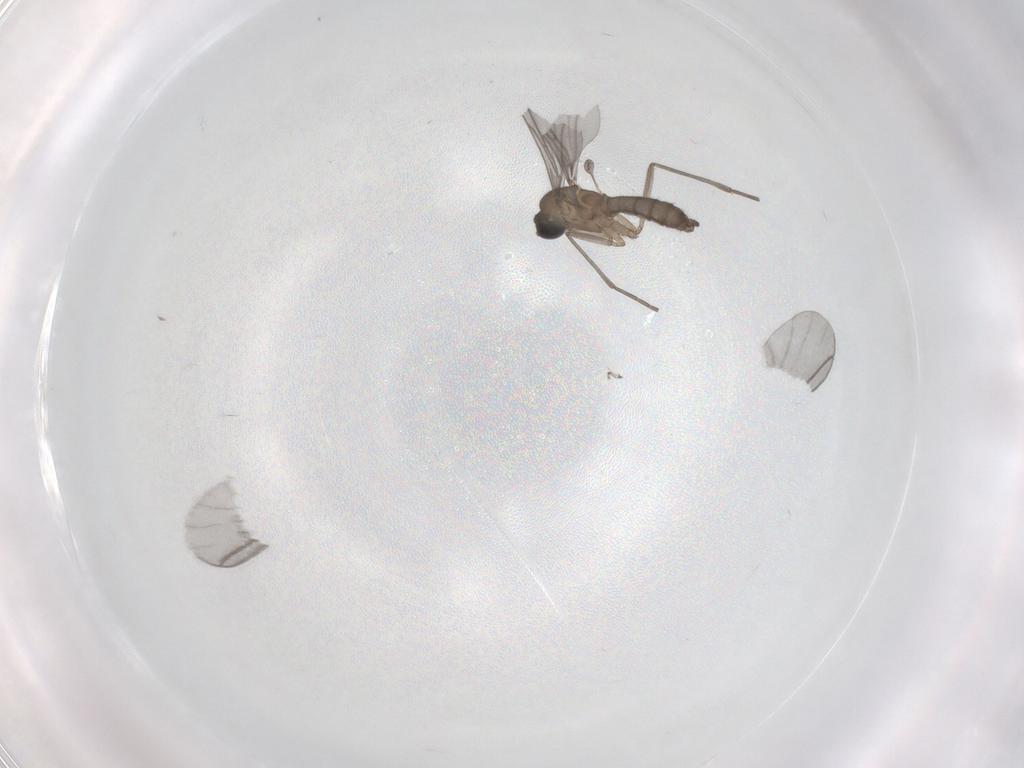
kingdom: Animalia
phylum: Arthropoda
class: Insecta
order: Diptera
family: Sciaridae
